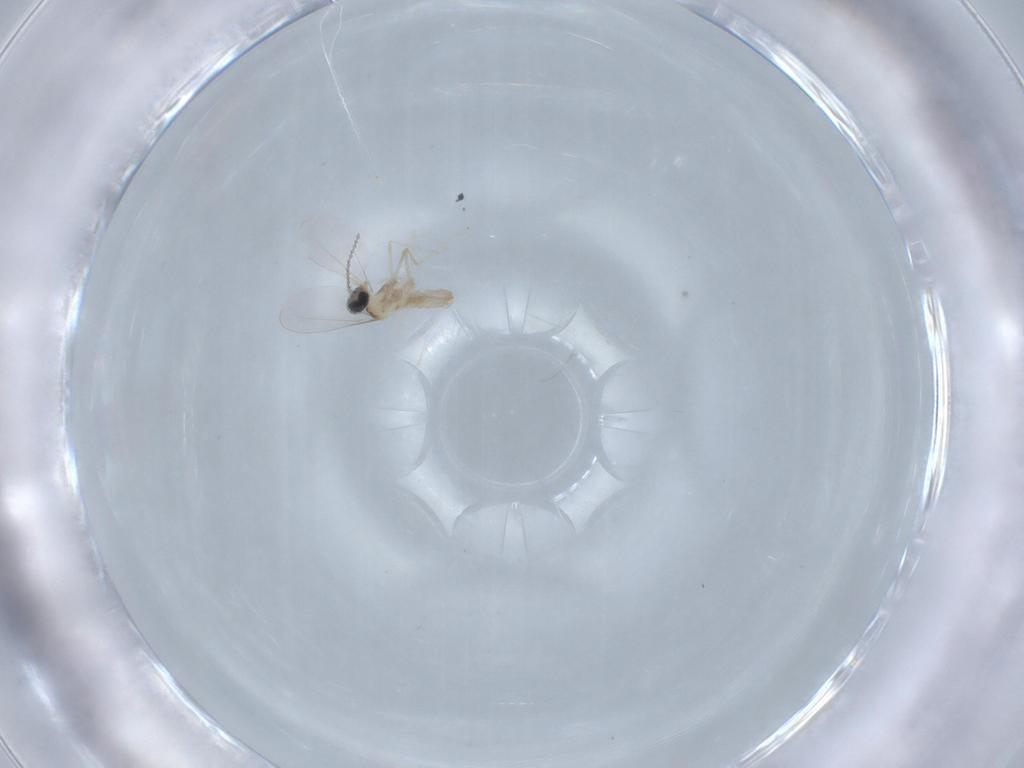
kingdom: Animalia
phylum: Arthropoda
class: Insecta
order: Diptera
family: Cecidomyiidae
